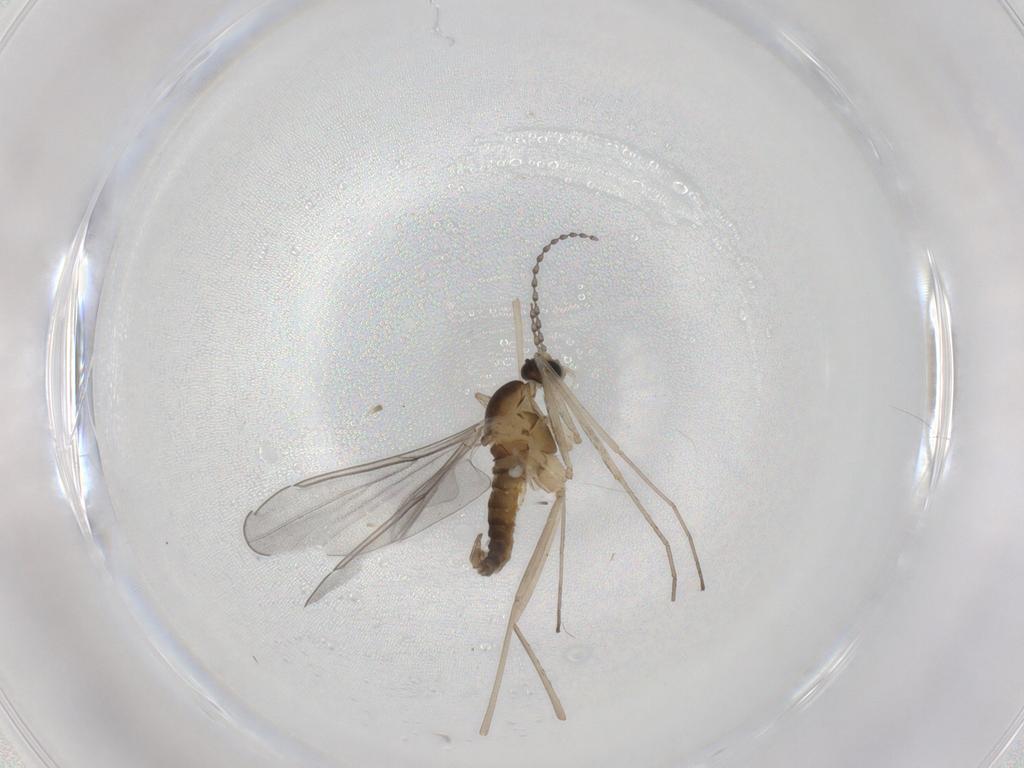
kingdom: Animalia
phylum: Arthropoda
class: Insecta
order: Diptera
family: Cecidomyiidae
